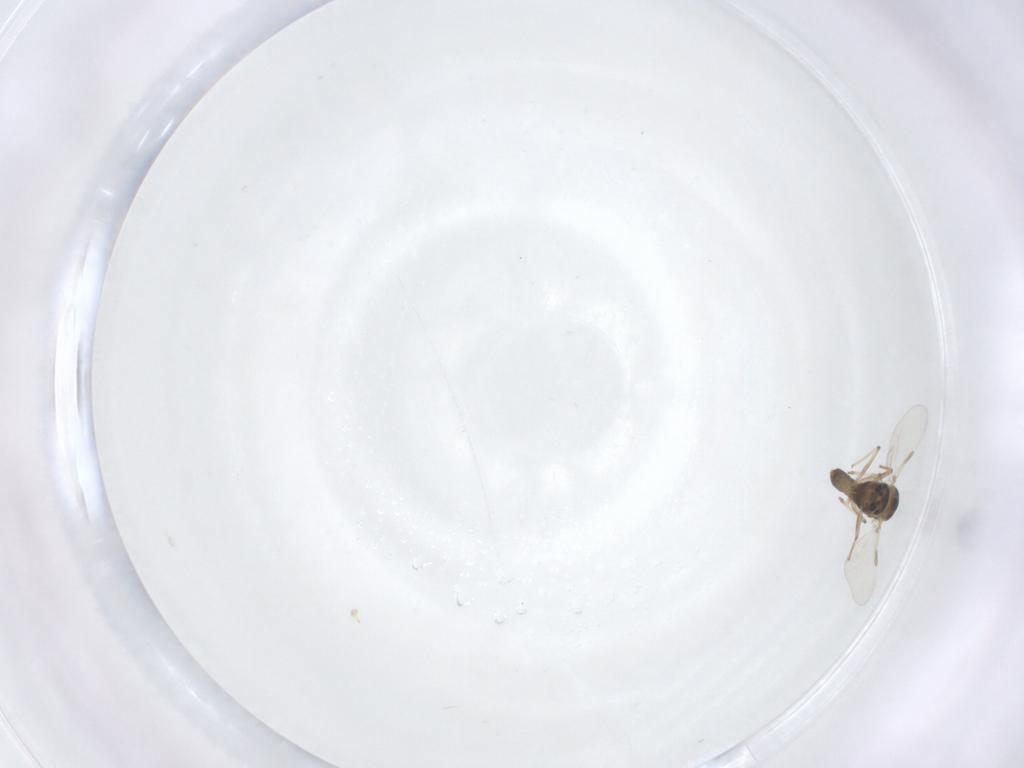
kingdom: Animalia
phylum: Arthropoda
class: Insecta
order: Diptera
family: Chironomidae
